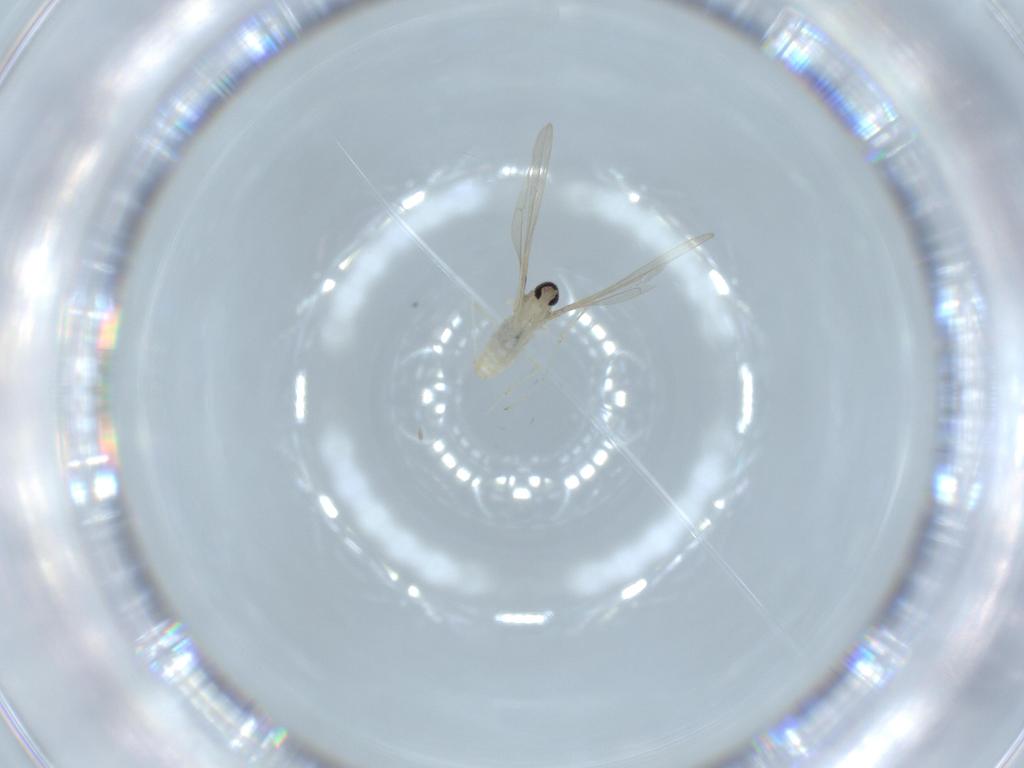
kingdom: Animalia
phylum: Arthropoda
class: Insecta
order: Diptera
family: Cecidomyiidae
